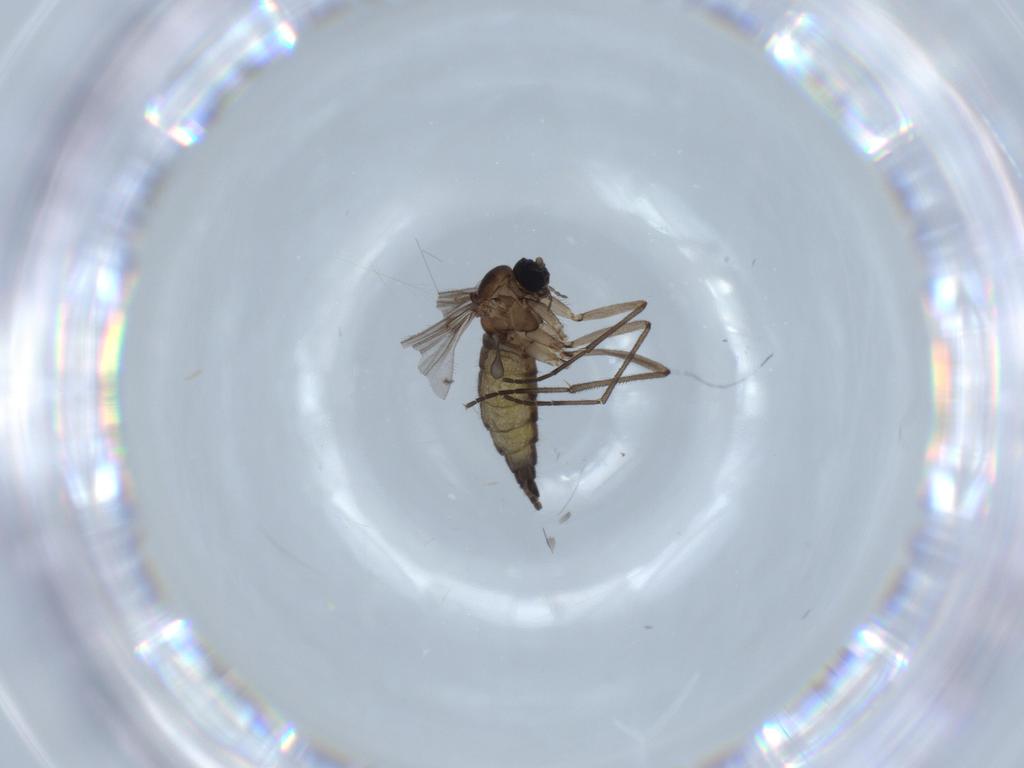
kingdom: Animalia
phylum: Arthropoda
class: Insecta
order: Diptera
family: Sciaridae
